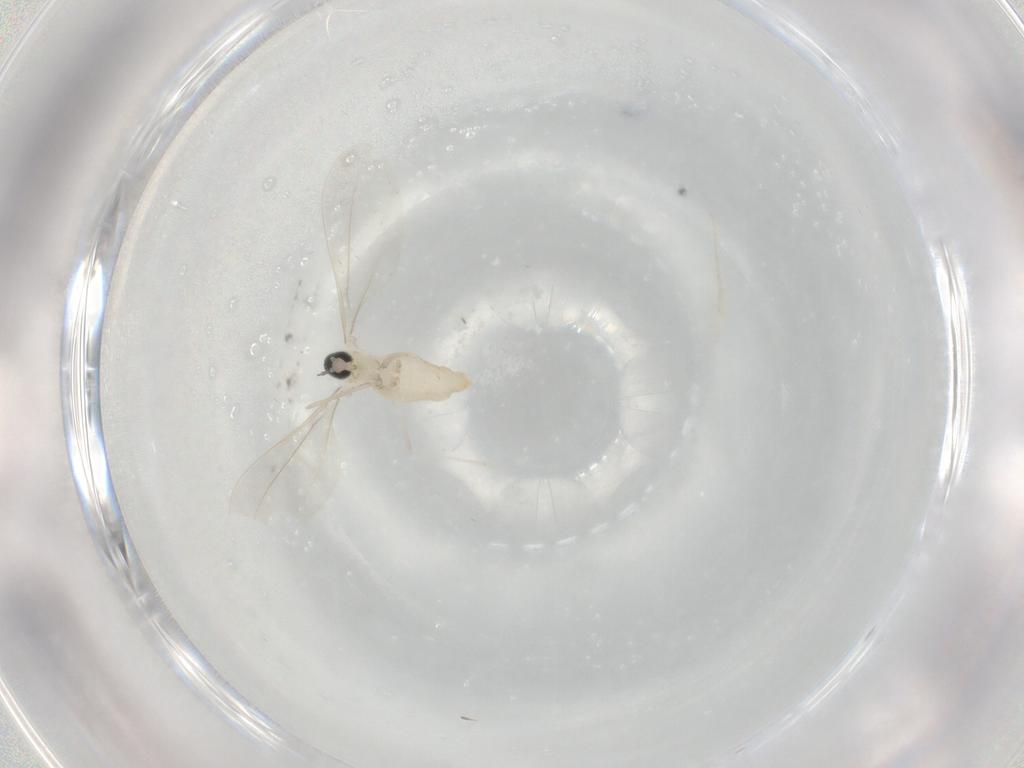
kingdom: Animalia
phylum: Arthropoda
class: Insecta
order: Diptera
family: Cecidomyiidae
